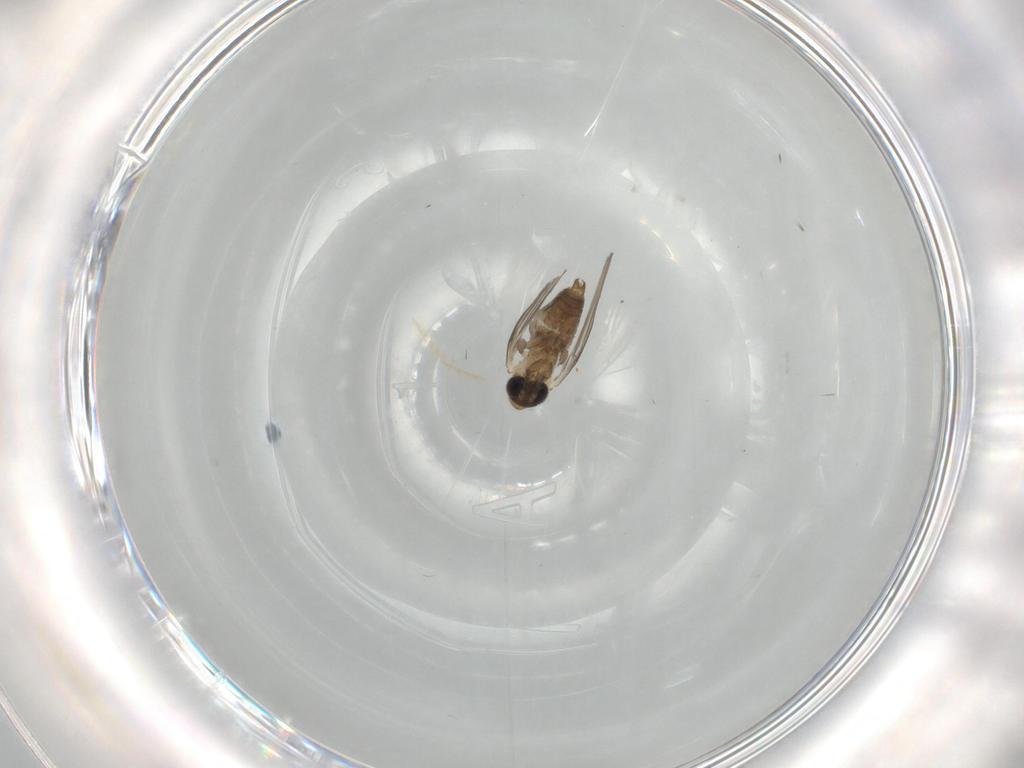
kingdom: Animalia
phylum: Arthropoda
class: Insecta
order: Diptera
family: Psychodidae
